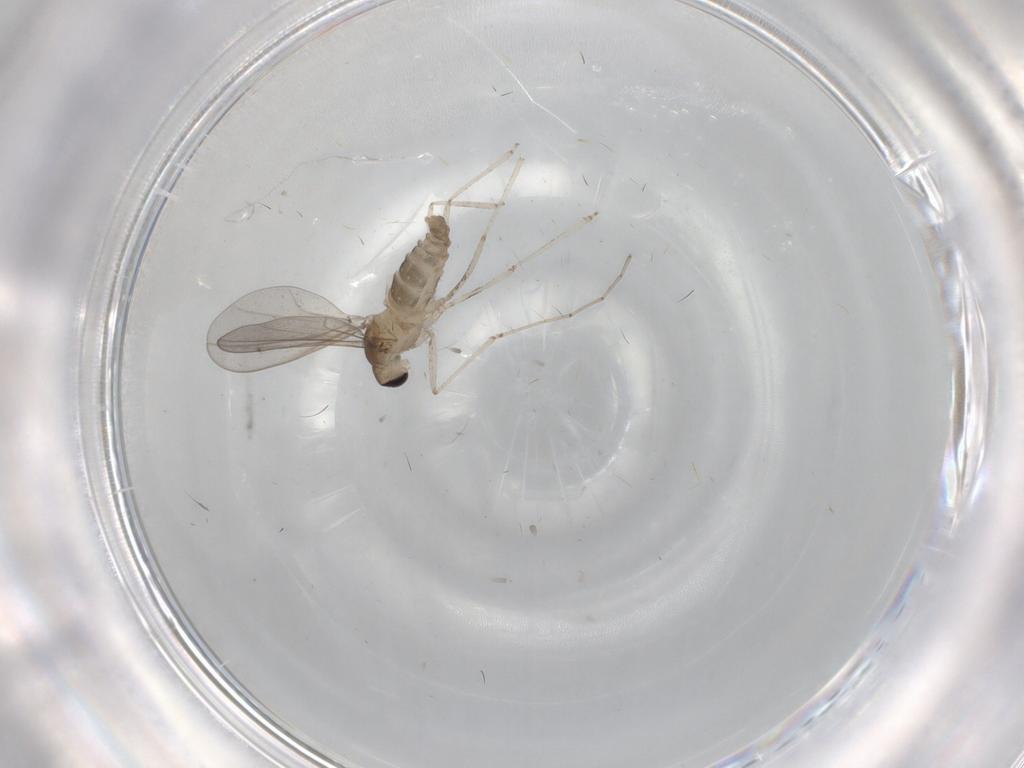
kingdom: Animalia
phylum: Arthropoda
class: Insecta
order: Diptera
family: Cecidomyiidae
